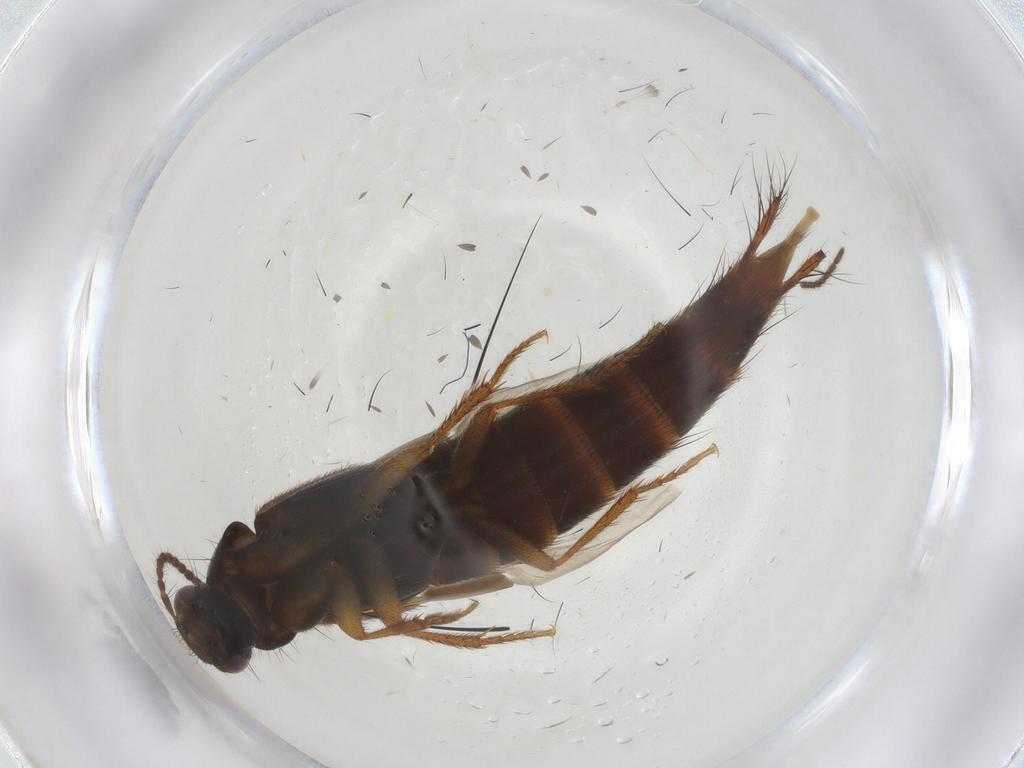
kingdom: Animalia
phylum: Arthropoda
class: Insecta
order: Coleoptera
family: Staphylinidae
